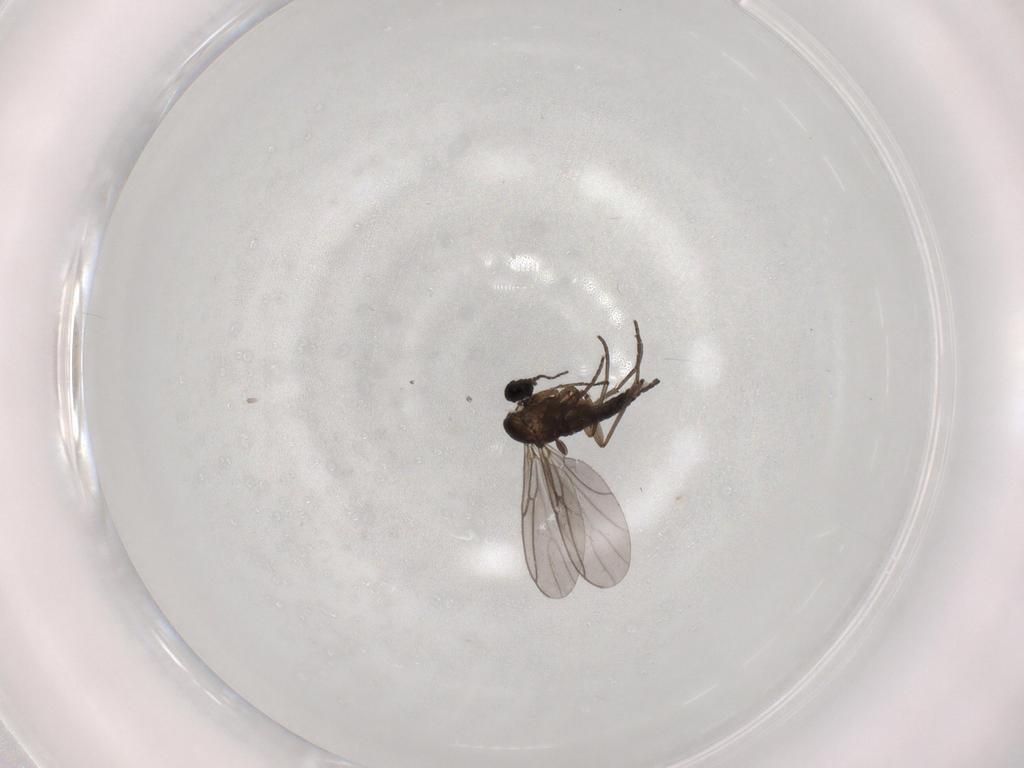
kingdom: Animalia
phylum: Arthropoda
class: Insecta
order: Diptera
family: Sciaridae
